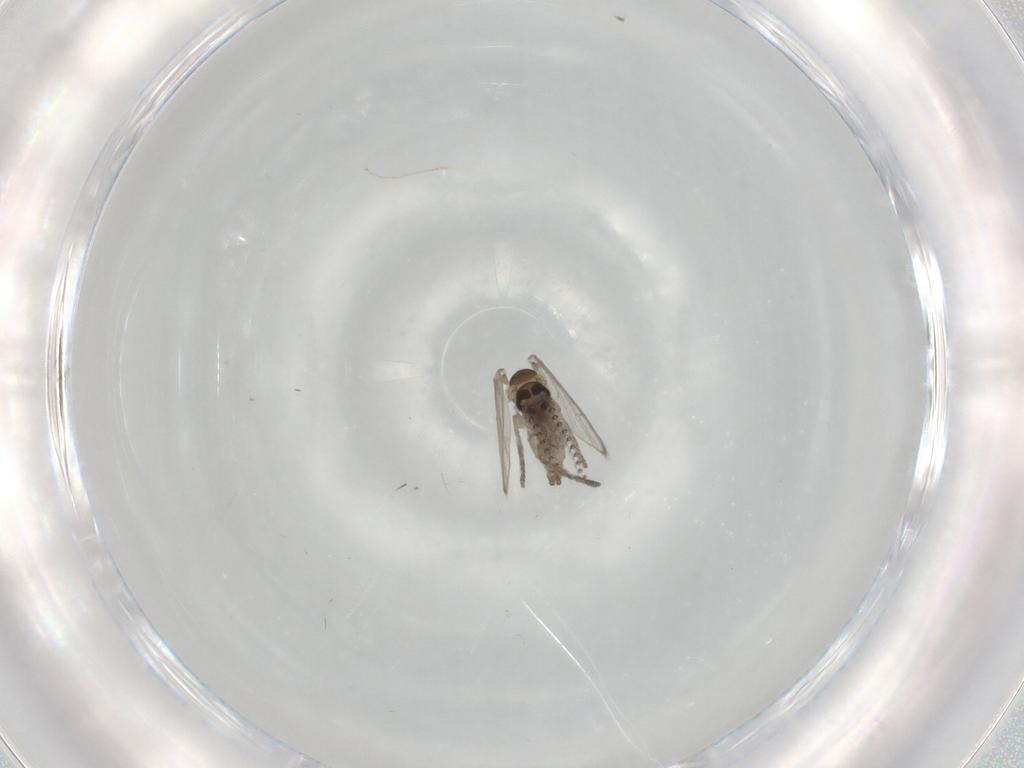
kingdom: Animalia
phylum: Arthropoda
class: Insecta
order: Diptera
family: Psychodidae
